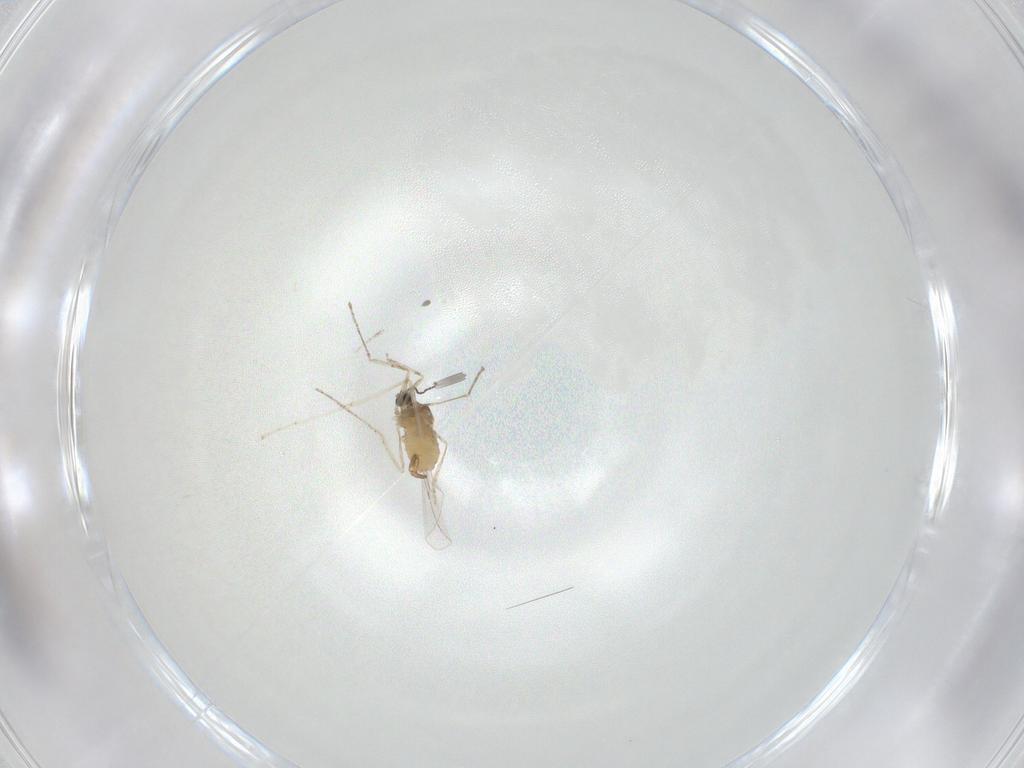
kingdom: Animalia
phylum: Arthropoda
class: Insecta
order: Diptera
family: Cecidomyiidae
